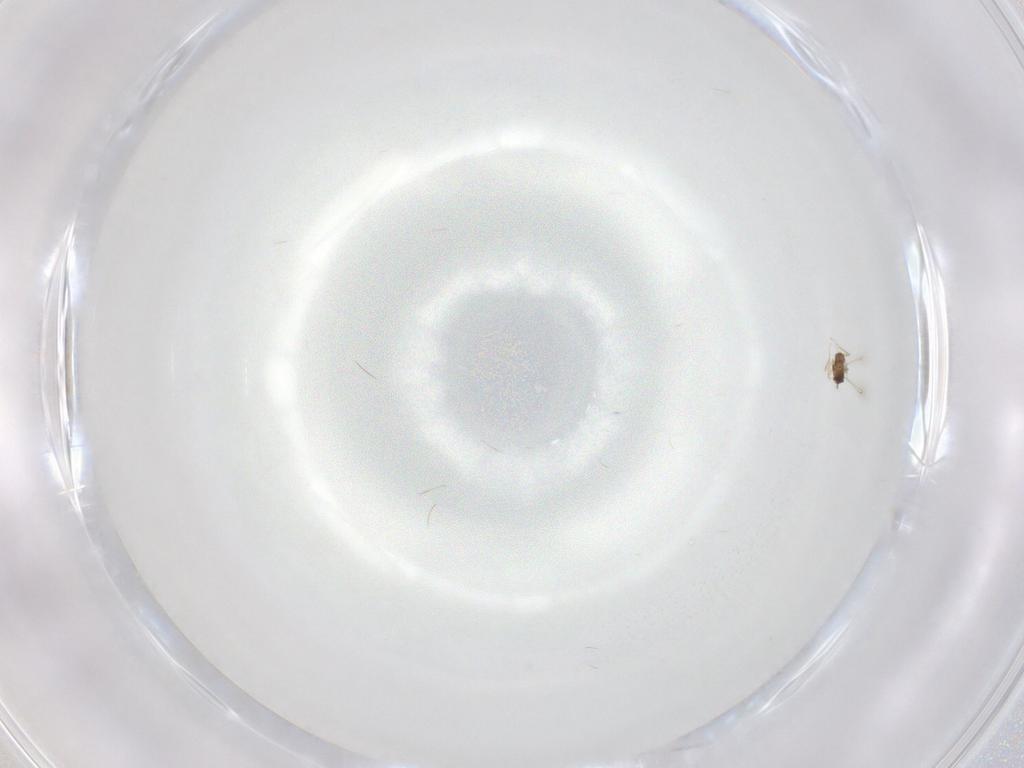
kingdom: Animalia
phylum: Arthropoda
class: Insecta
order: Hymenoptera
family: Mymaridae
